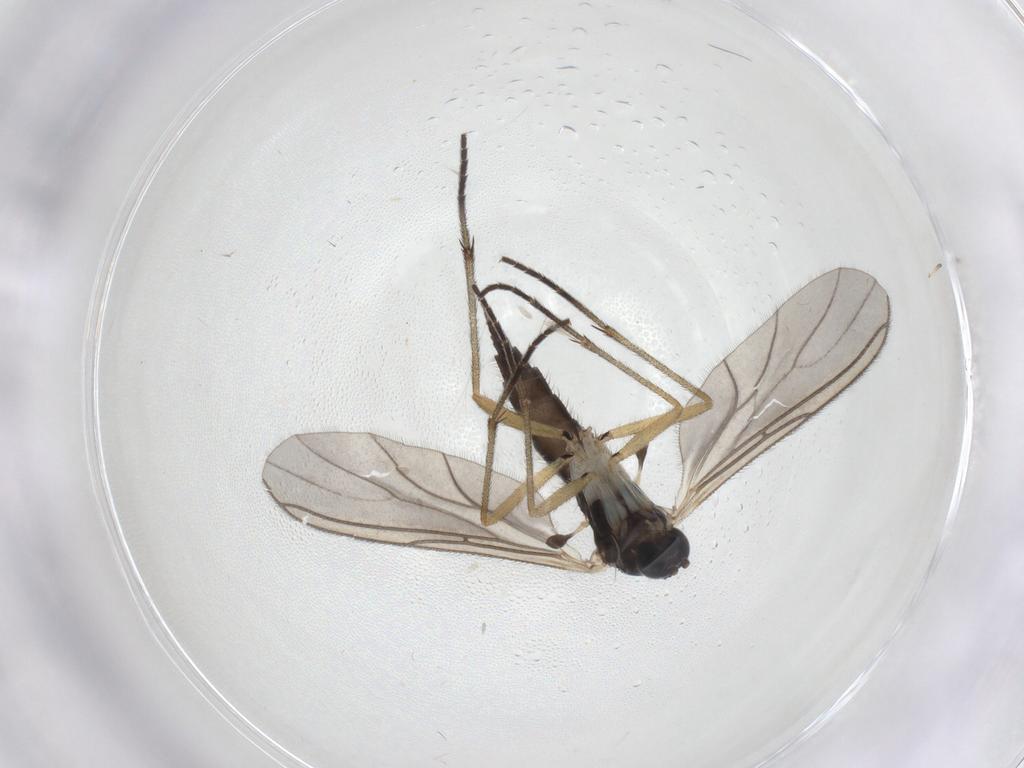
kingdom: Animalia
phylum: Arthropoda
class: Insecta
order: Diptera
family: Sciaridae
